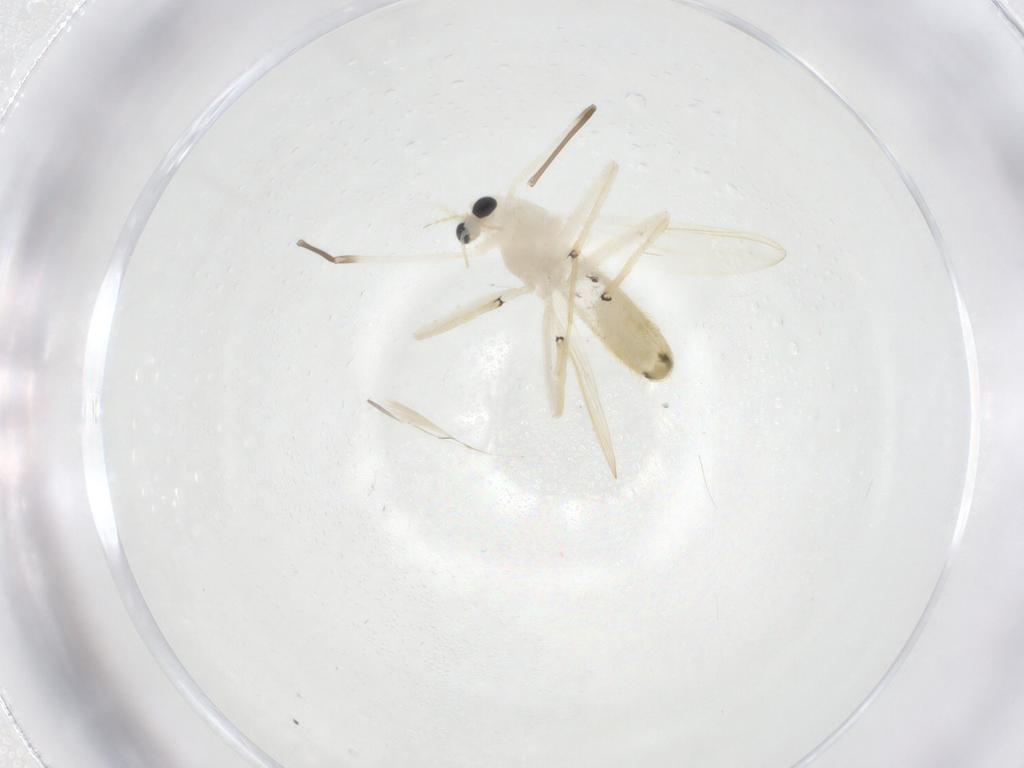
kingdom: Animalia
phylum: Arthropoda
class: Insecta
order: Diptera
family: Chironomidae
